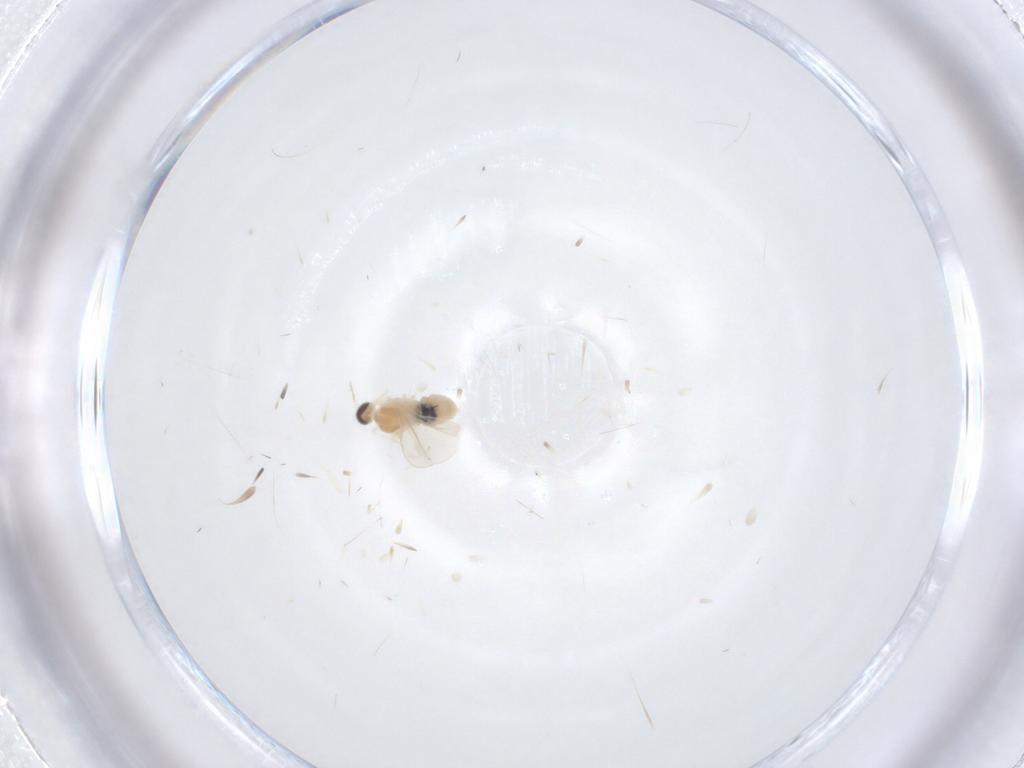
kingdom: Animalia
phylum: Arthropoda
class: Insecta
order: Diptera
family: Cecidomyiidae
